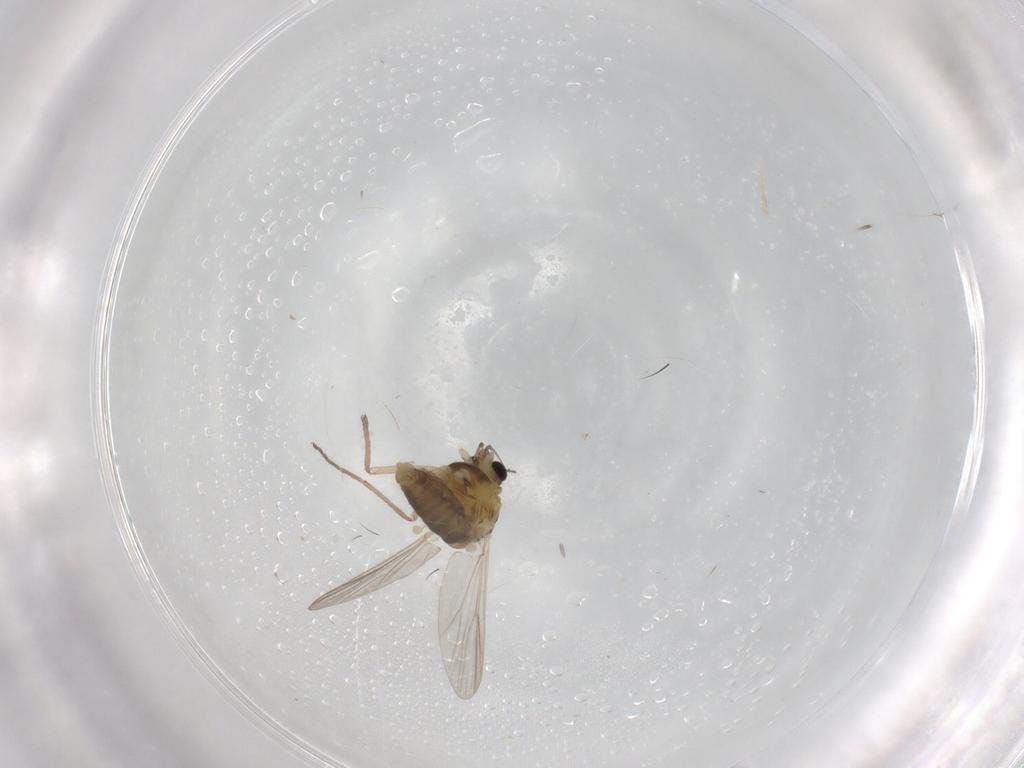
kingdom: Animalia
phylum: Arthropoda
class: Insecta
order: Diptera
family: Chironomidae
